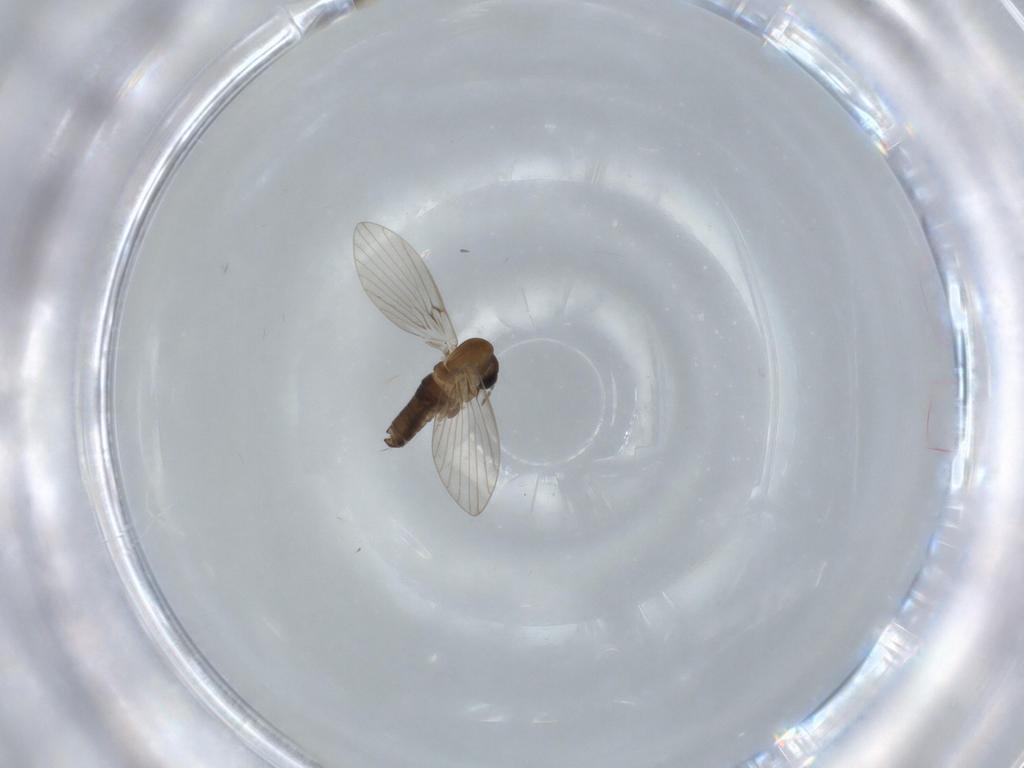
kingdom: Animalia
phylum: Arthropoda
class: Insecta
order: Diptera
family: Psychodidae
